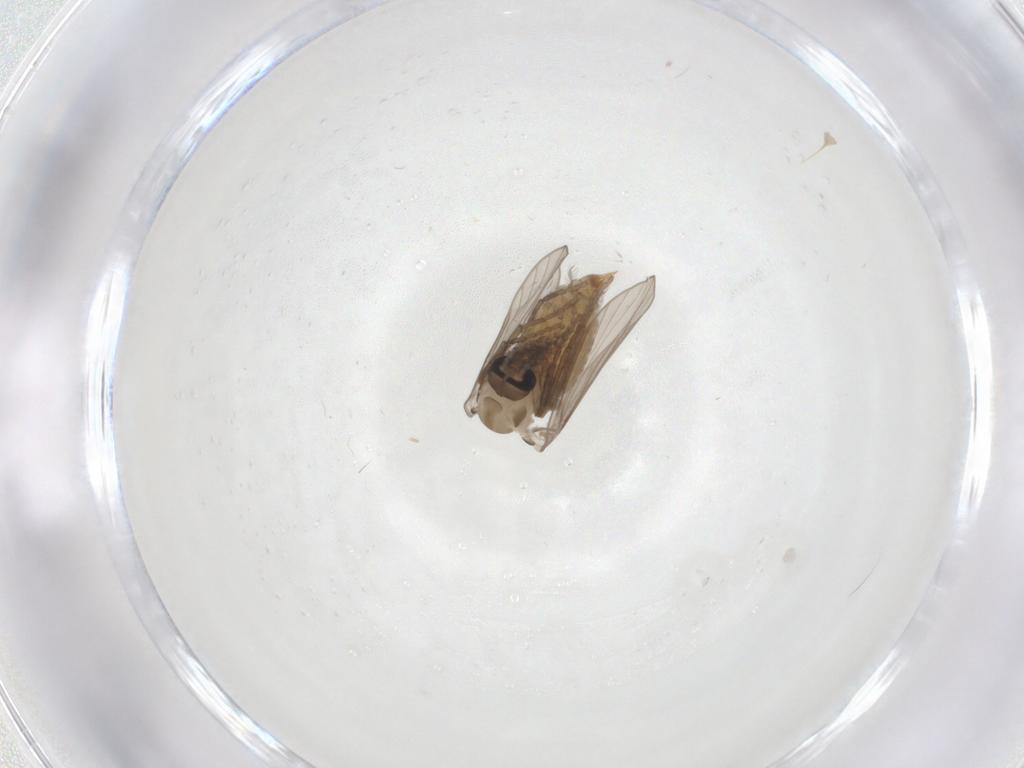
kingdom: Animalia
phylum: Arthropoda
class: Insecta
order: Diptera
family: Psychodidae
